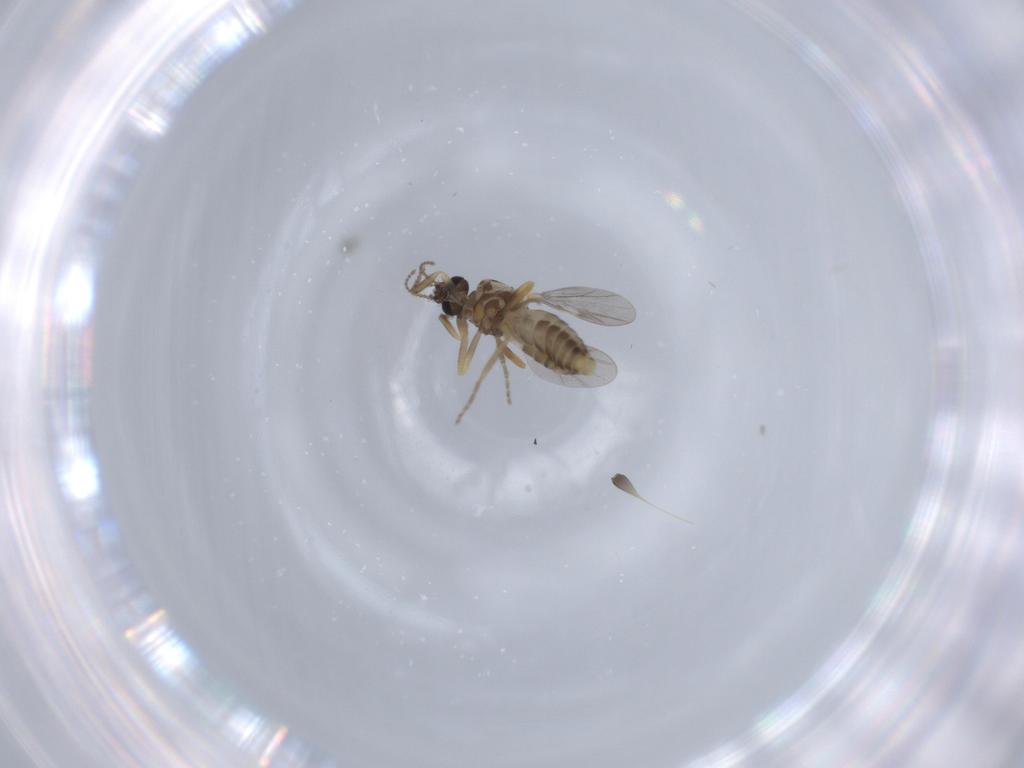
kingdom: Animalia
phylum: Arthropoda
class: Insecta
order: Diptera
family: Ceratopogonidae
